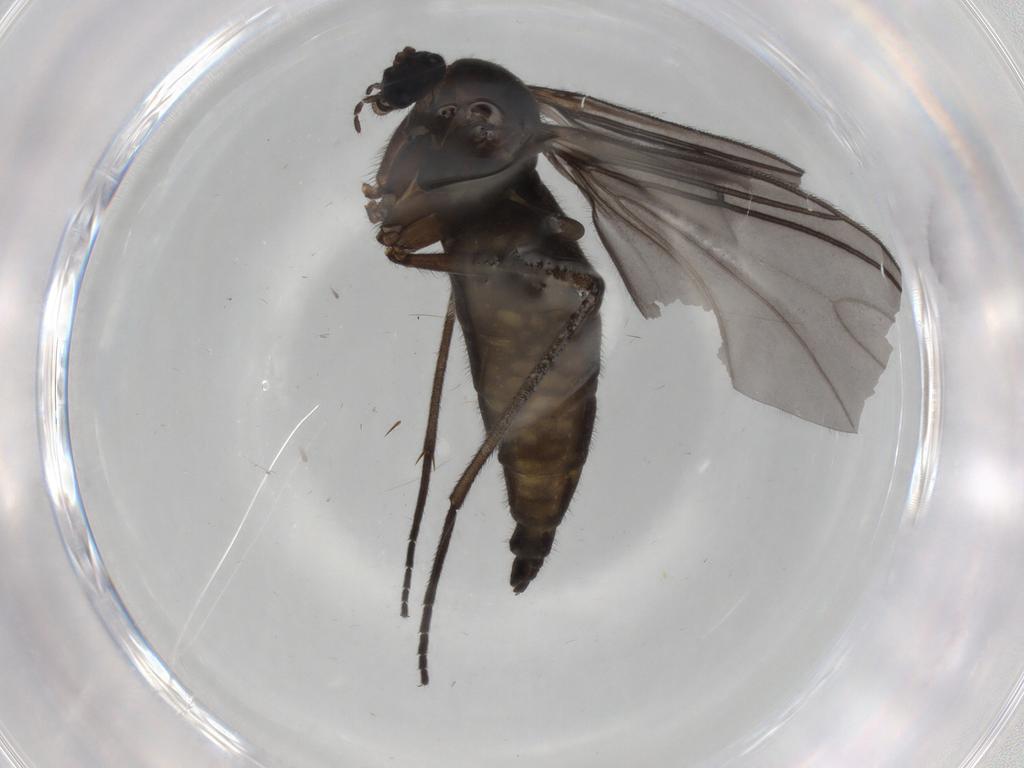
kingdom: Animalia
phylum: Arthropoda
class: Insecta
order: Diptera
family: Sciaridae
